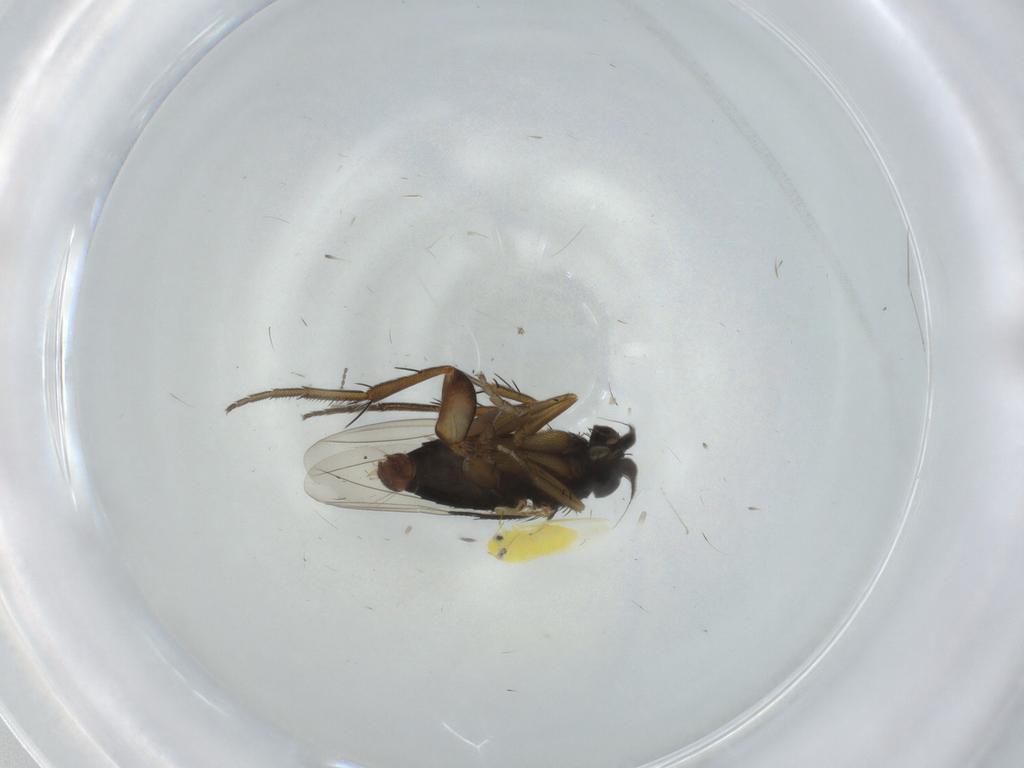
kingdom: Animalia
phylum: Arthropoda
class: Insecta
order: Diptera
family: Phoridae
